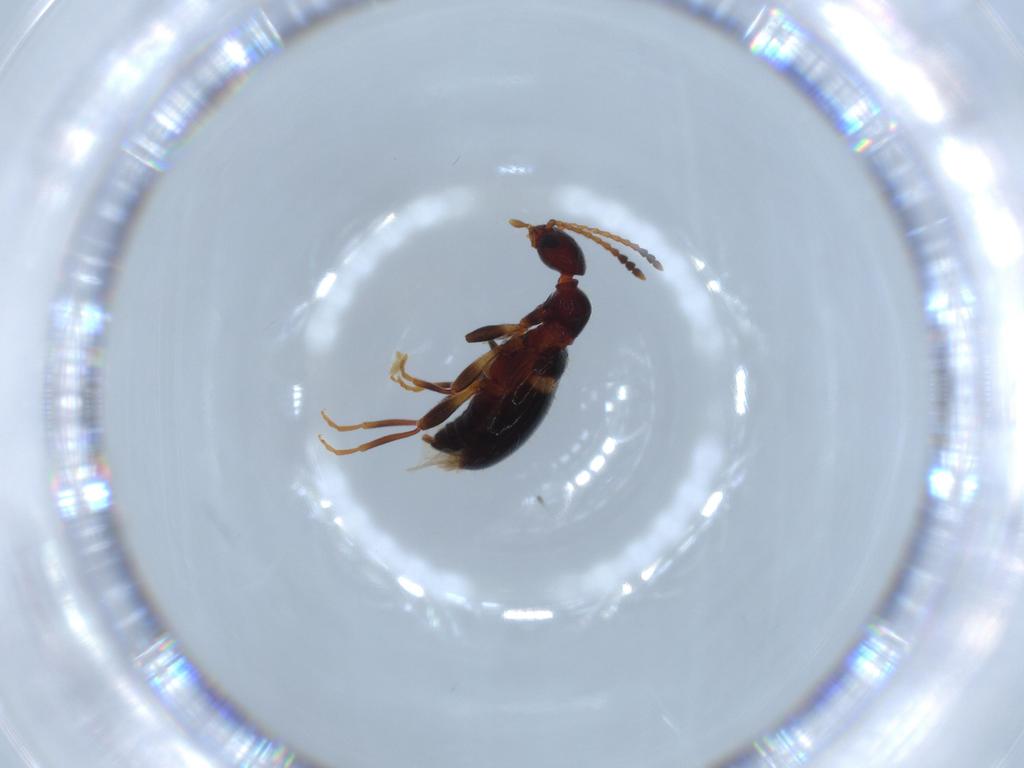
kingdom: Animalia
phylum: Arthropoda
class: Insecta
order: Coleoptera
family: Anthicidae
